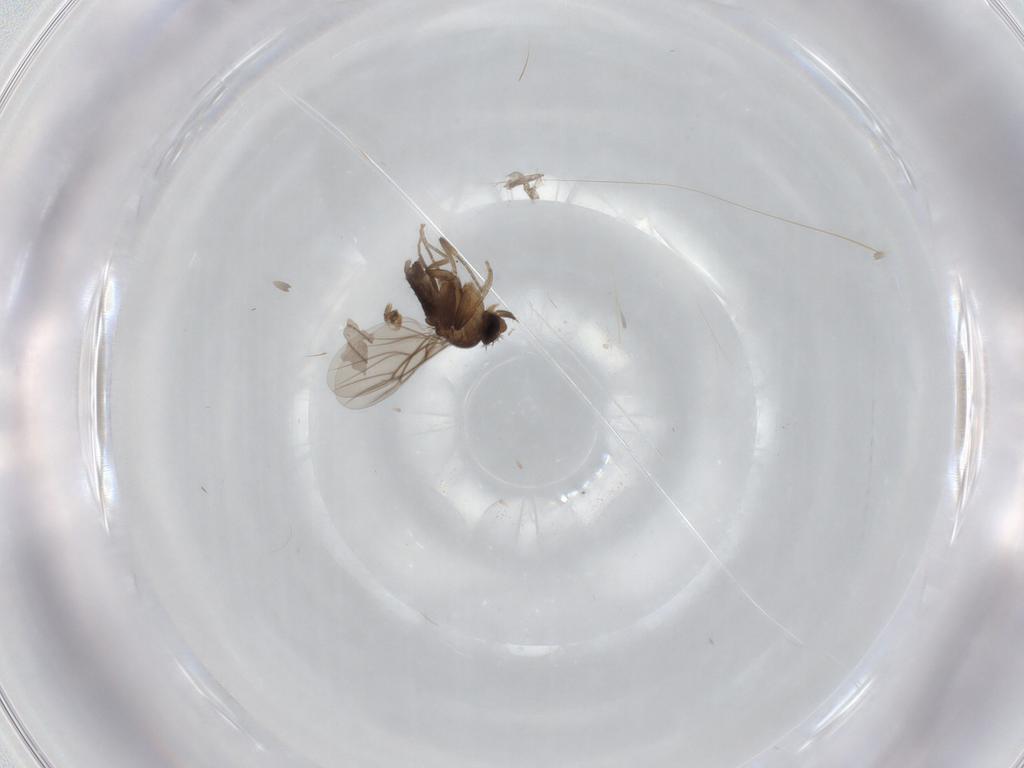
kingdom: Animalia
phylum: Arthropoda
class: Insecta
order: Diptera
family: Phoridae
